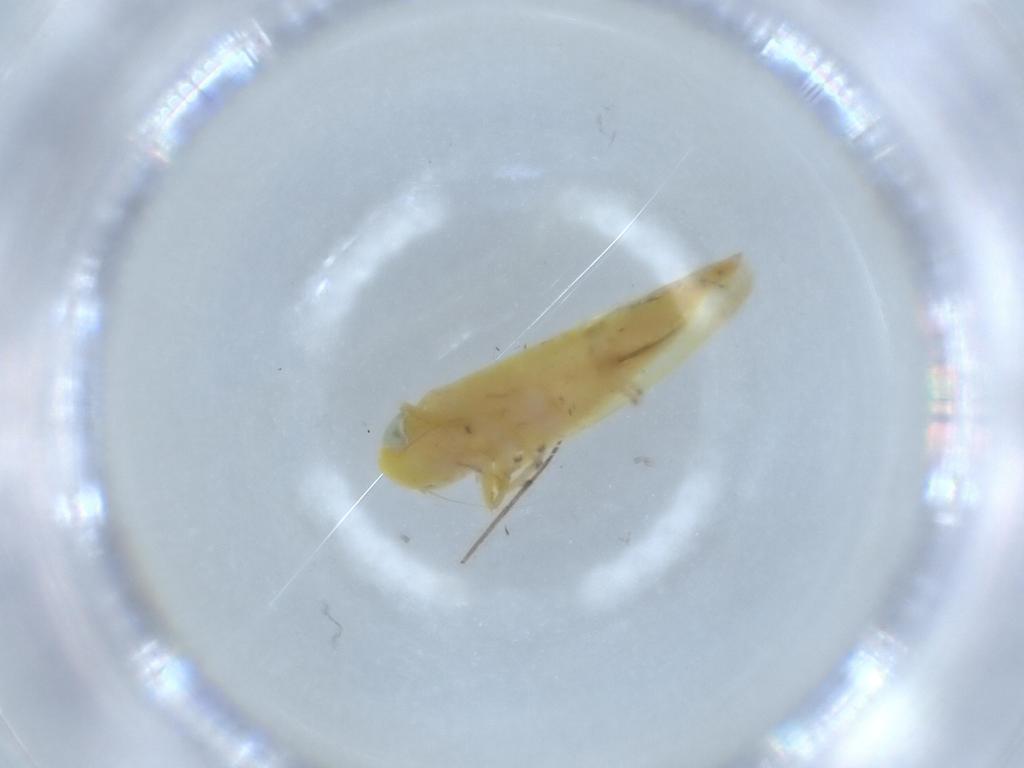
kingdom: Animalia
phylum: Arthropoda
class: Insecta
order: Hemiptera
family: Cicadellidae
